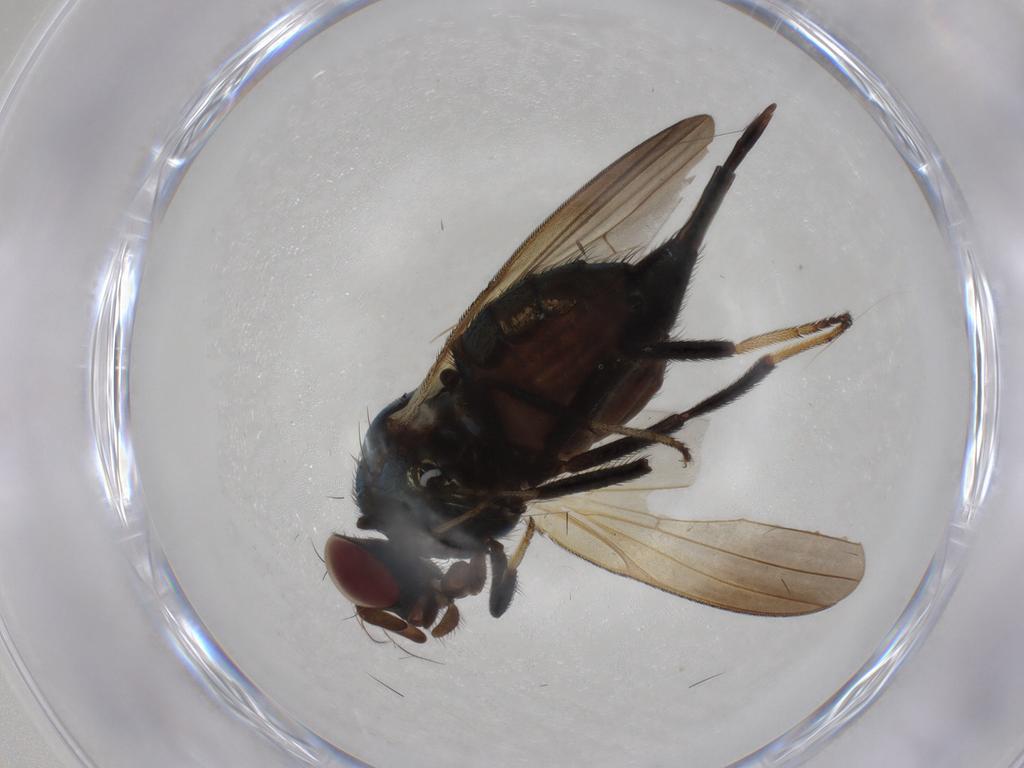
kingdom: Animalia
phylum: Arthropoda
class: Insecta
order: Diptera
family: Lonchaeidae
